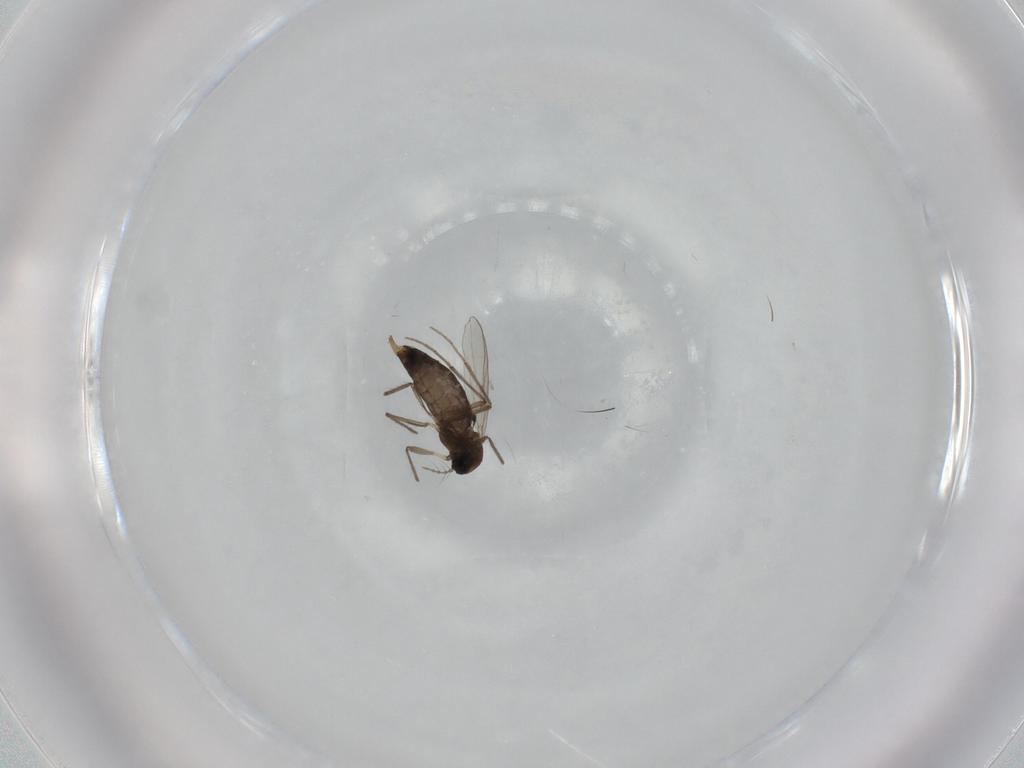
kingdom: Animalia
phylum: Arthropoda
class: Insecta
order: Diptera
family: Chironomidae
